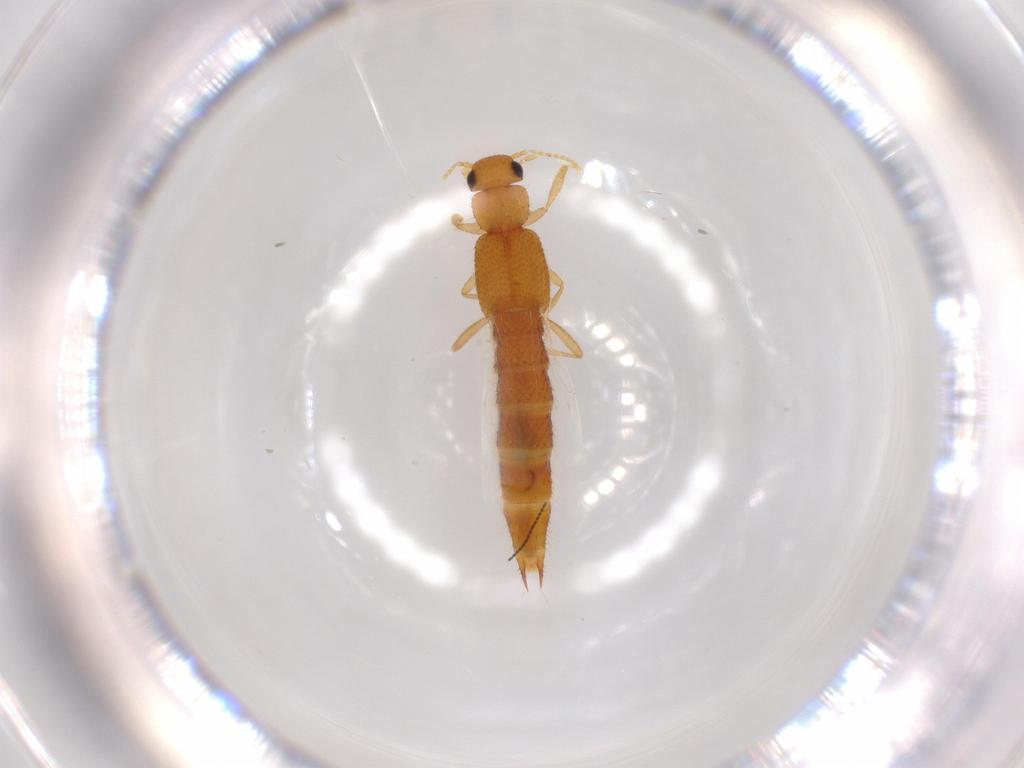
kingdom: Animalia
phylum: Arthropoda
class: Insecta
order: Coleoptera
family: Staphylinidae
